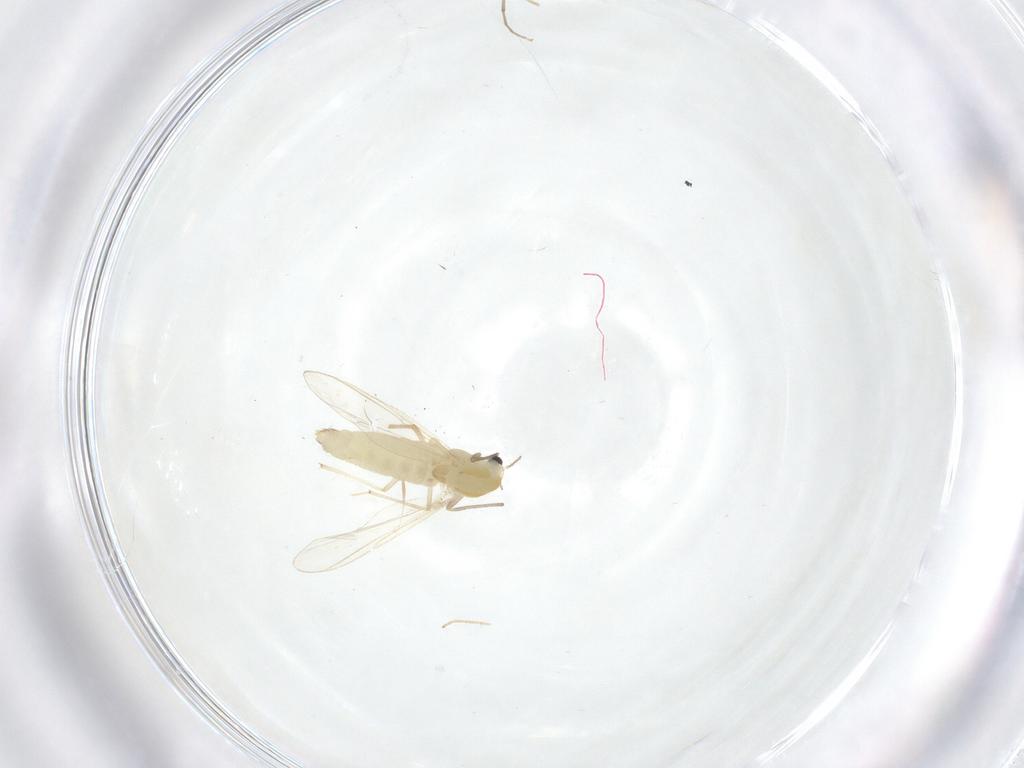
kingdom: Animalia
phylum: Arthropoda
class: Insecta
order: Diptera
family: Chironomidae
